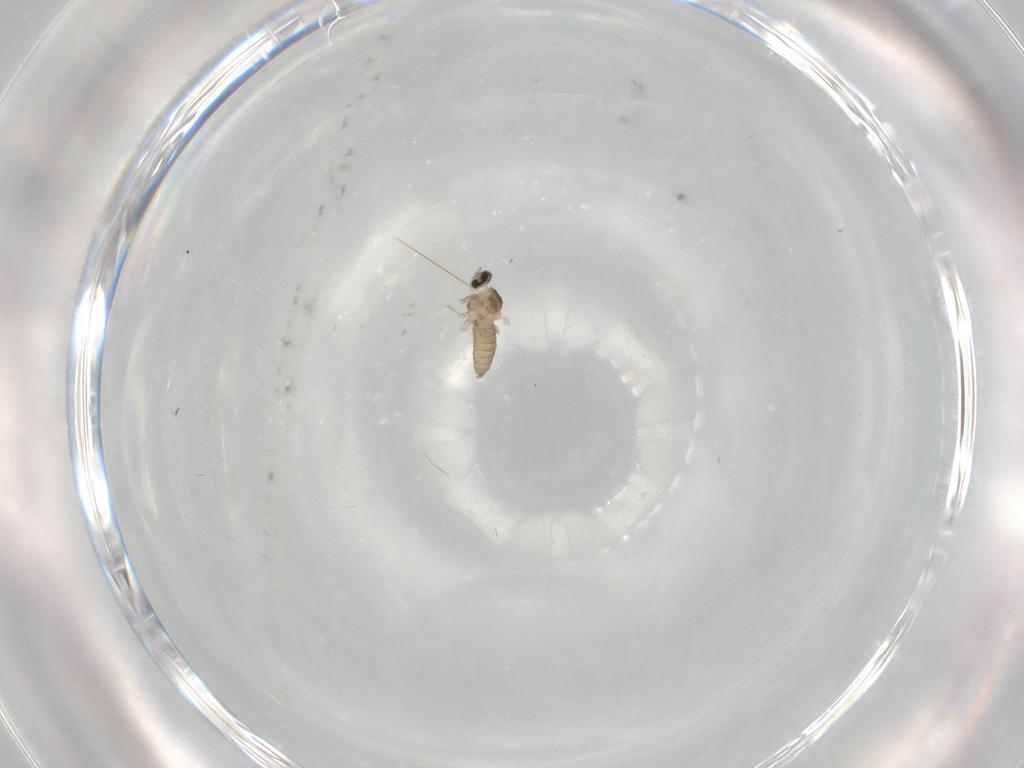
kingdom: Animalia
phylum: Arthropoda
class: Insecta
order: Diptera
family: Cecidomyiidae
